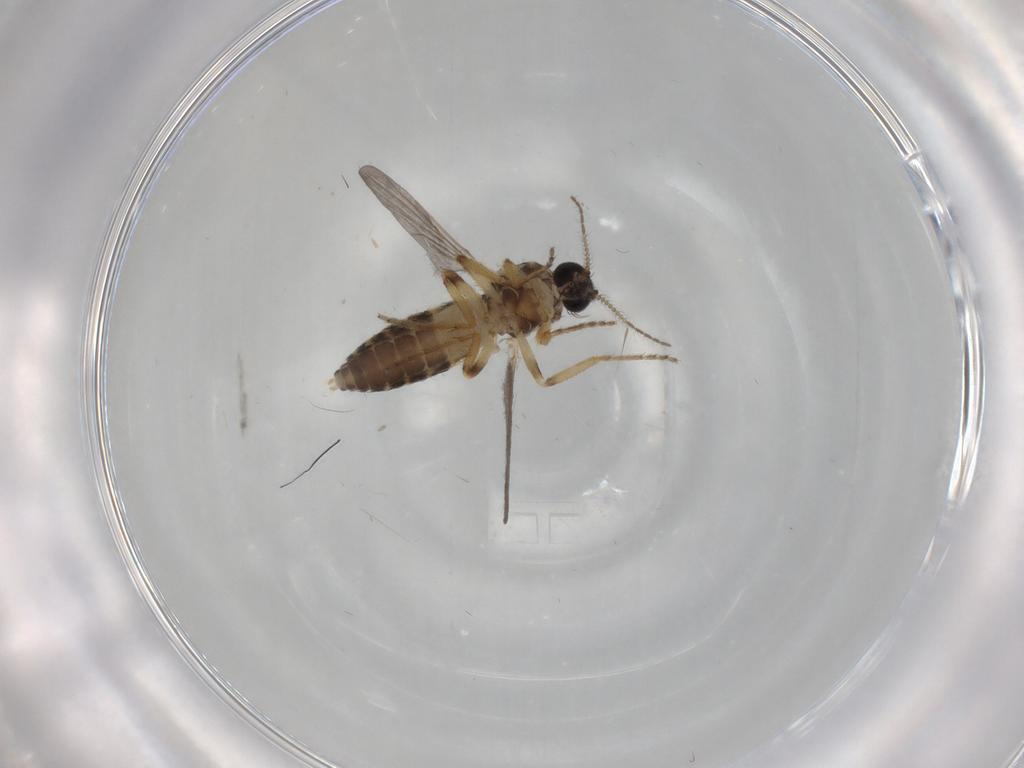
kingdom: Animalia
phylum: Arthropoda
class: Insecta
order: Diptera
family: Ceratopogonidae
